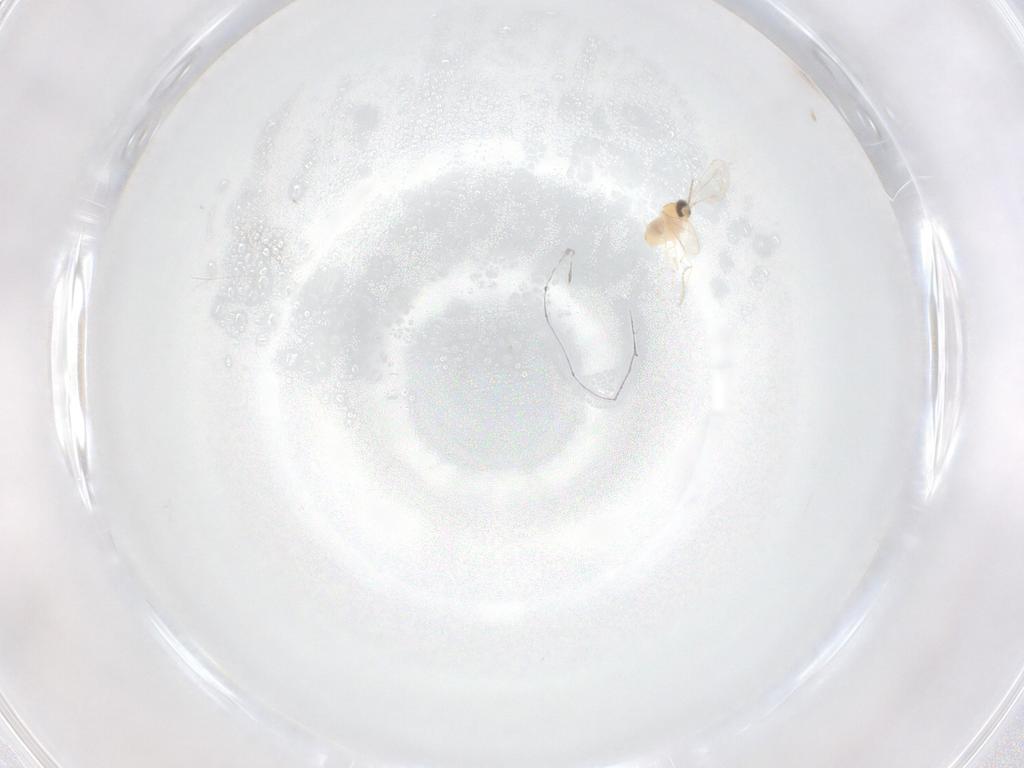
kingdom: Animalia
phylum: Arthropoda
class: Insecta
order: Diptera
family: Cecidomyiidae
